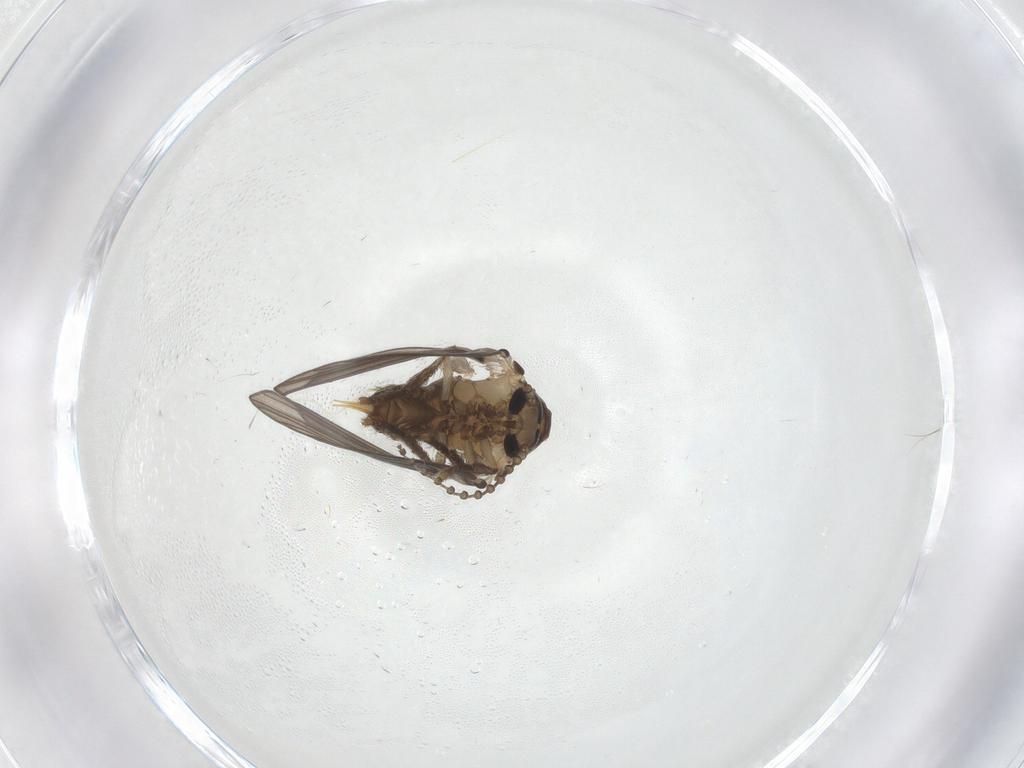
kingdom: Animalia
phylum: Arthropoda
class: Insecta
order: Diptera
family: Psychodidae
